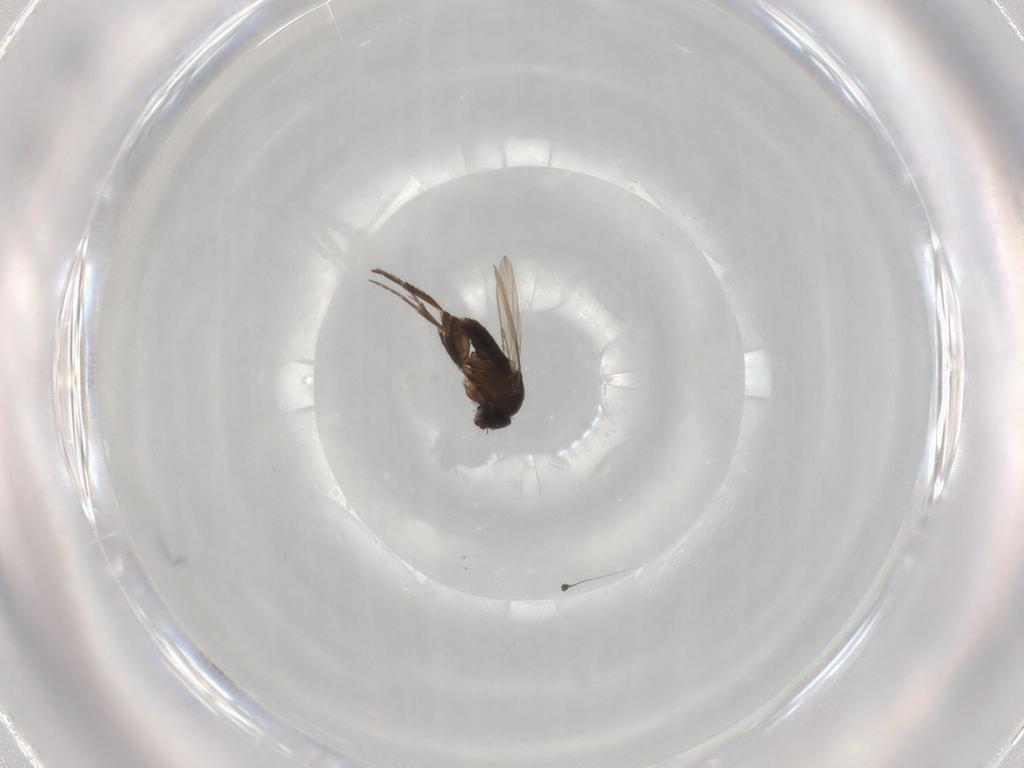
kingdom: Animalia
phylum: Arthropoda
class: Insecta
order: Diptera
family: Phoridae
